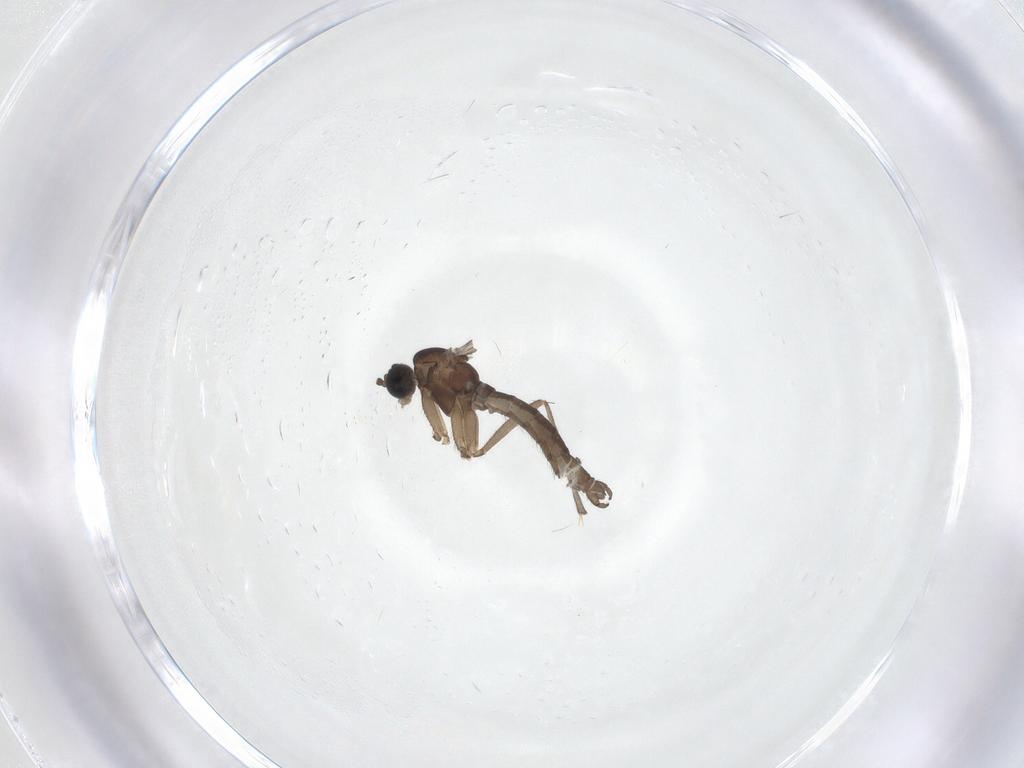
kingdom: Animalia
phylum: Arthropoda
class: Insecta
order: Diptera
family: Sciaridae
